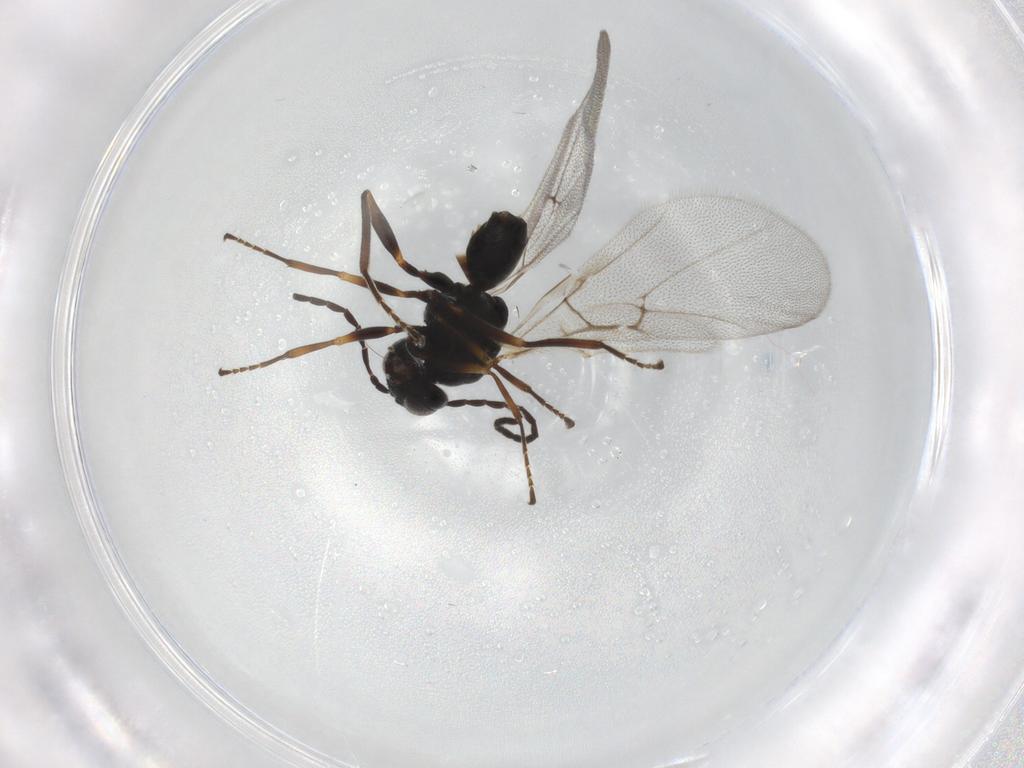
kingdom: Animalia
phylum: Arthropoda
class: Insecta
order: Hymenoptera
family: Cynipidae
